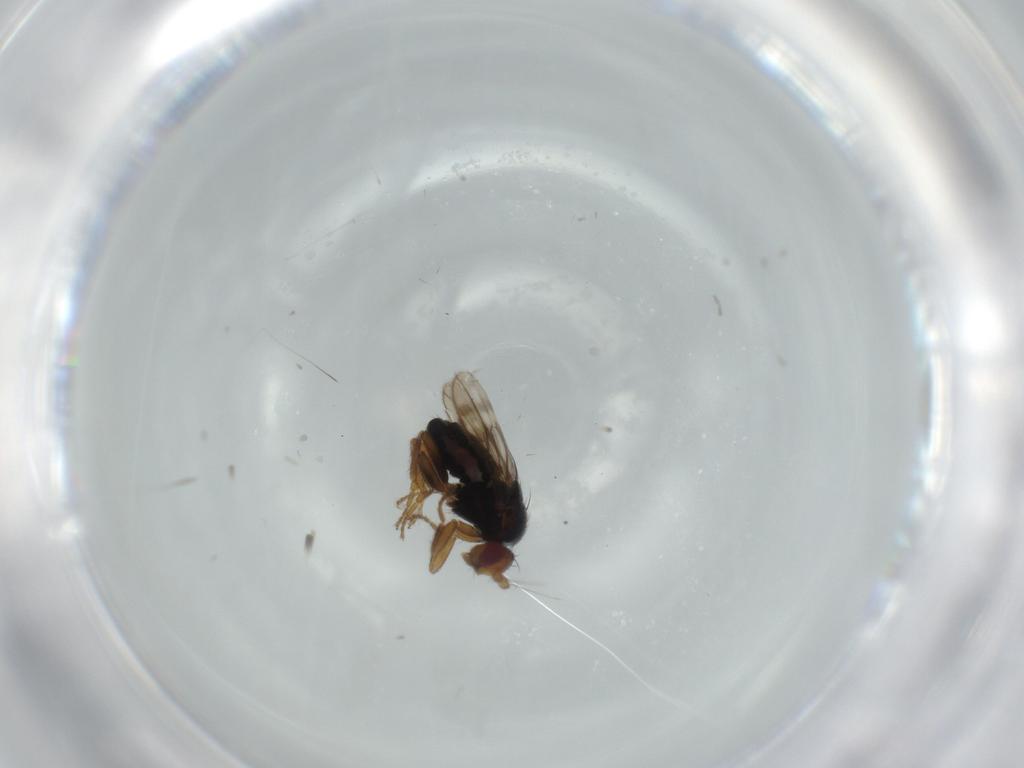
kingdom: Animalia
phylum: Arthropoda
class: Insecta
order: Diptera
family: Sphaeroceridae
